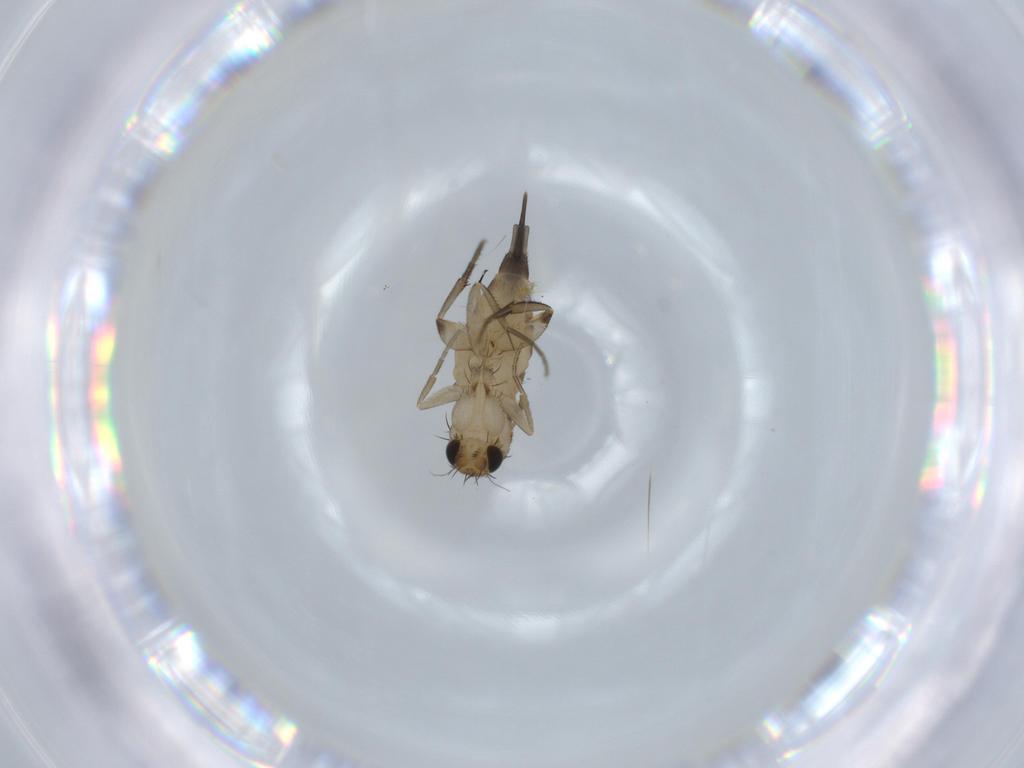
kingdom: Animalia
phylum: Arthropoda
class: Insecta
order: Diptera
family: Phoridae
